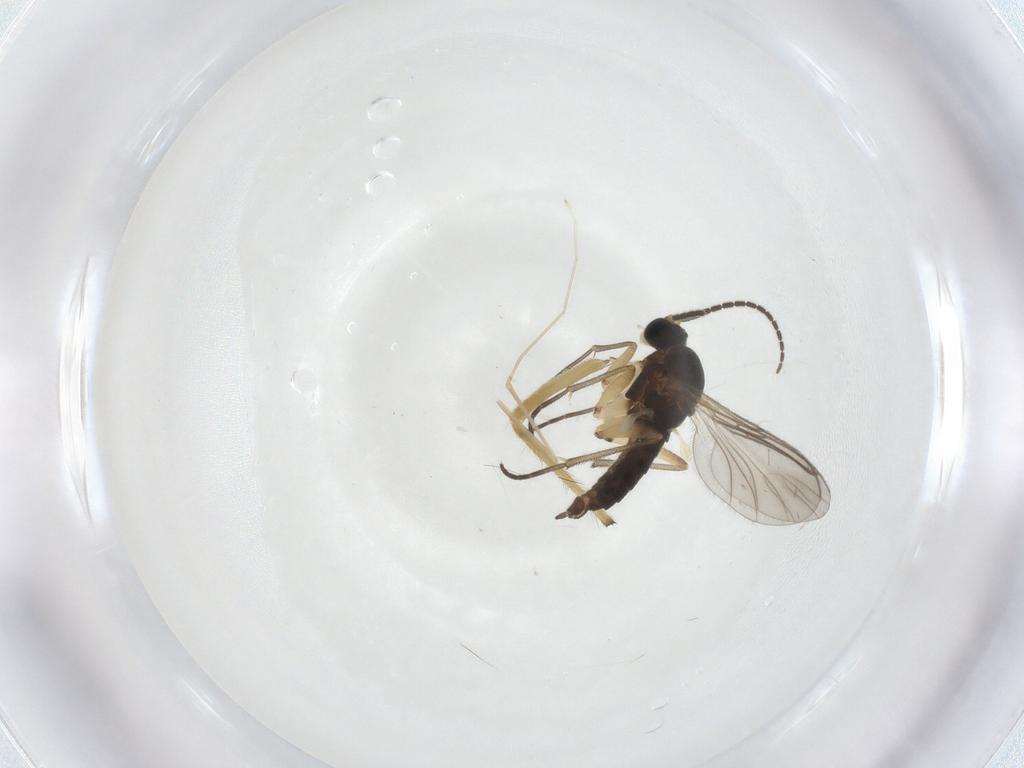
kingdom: Animalia
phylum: Arthropoda
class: Insecta
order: Diptera
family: Sciaridae
